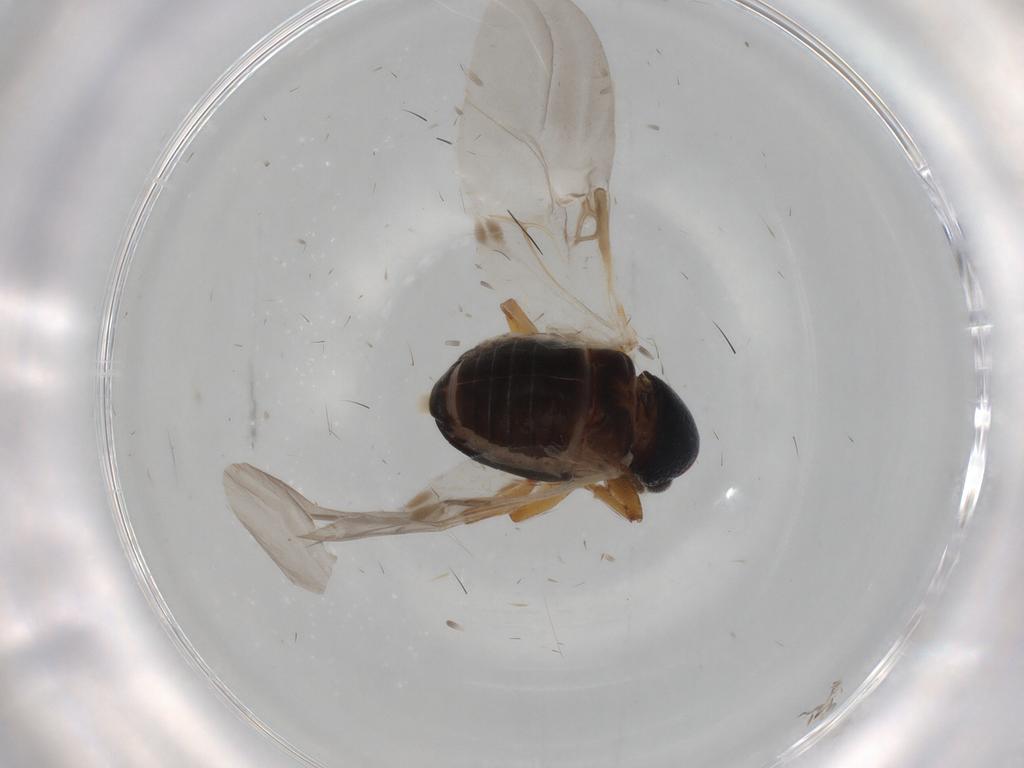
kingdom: Animalia
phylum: Arthropoda
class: Insecta
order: Coleoptera
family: Chrysomelidae
